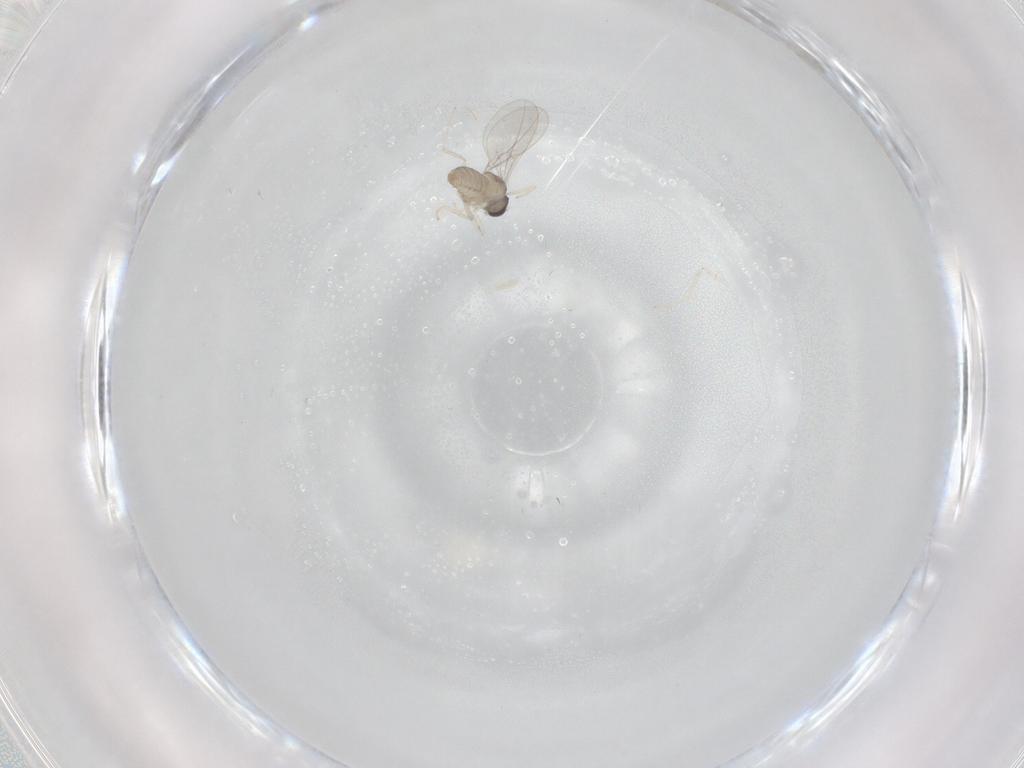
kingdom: Animalia
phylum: Arthropoda
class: Insecta
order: Diptera
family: Cecidomyiidae
